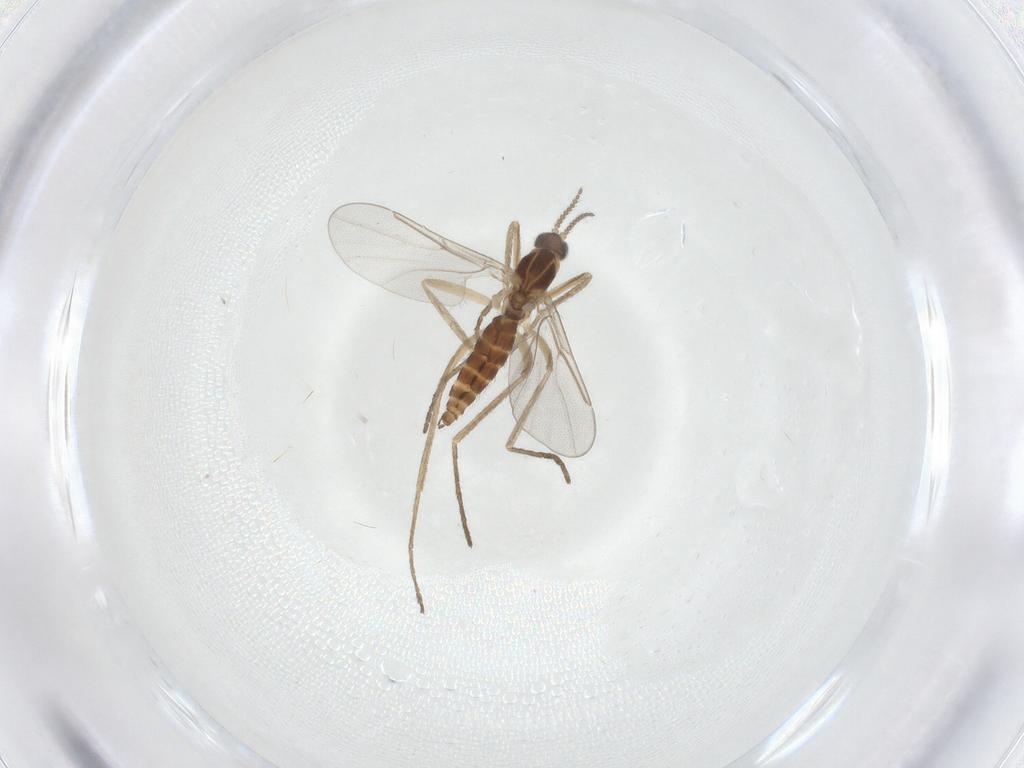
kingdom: Animalia
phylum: Arthropoda
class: Insecta
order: Diptera
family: Cecidomyiidae
